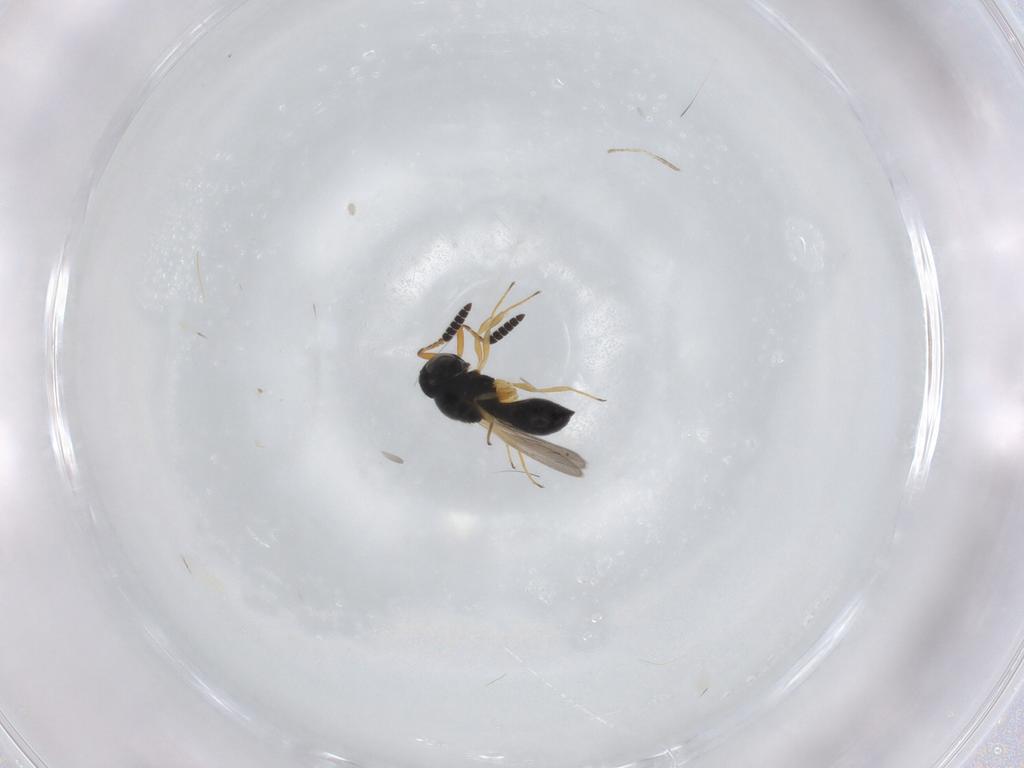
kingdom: Animalia
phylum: Arthropoda
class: Insecta
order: Hymenoptera
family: Scelionidae
